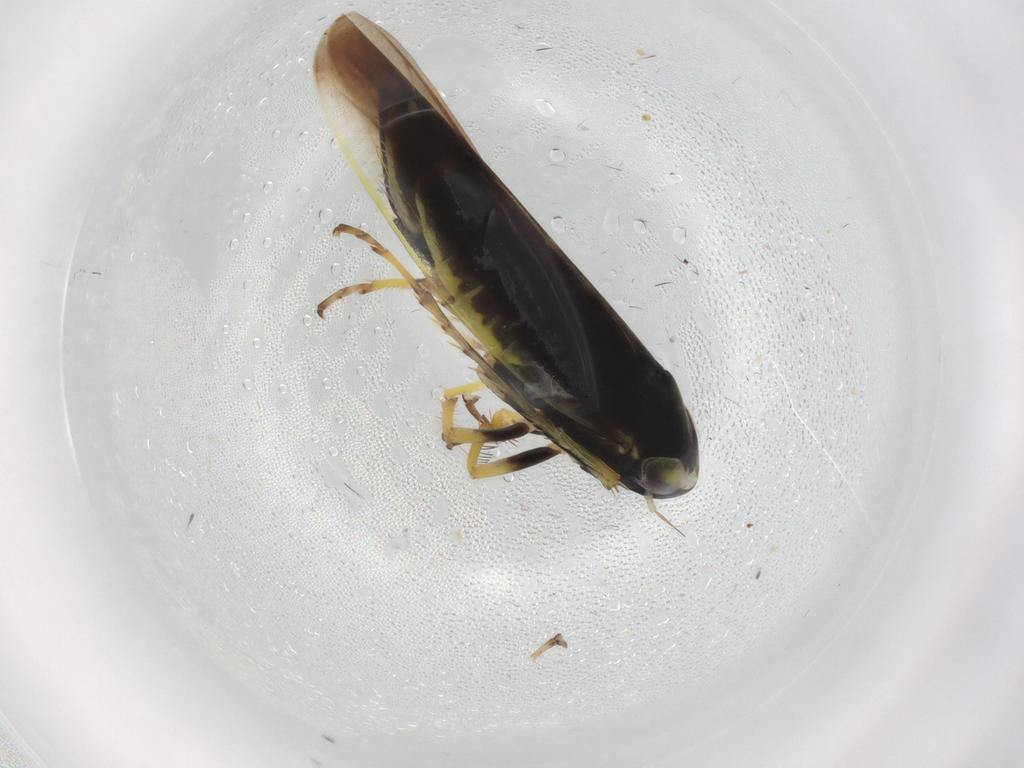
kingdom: Animalia
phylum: Arthropoda
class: Insecta
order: Hemiptera
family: Cicadellidae
